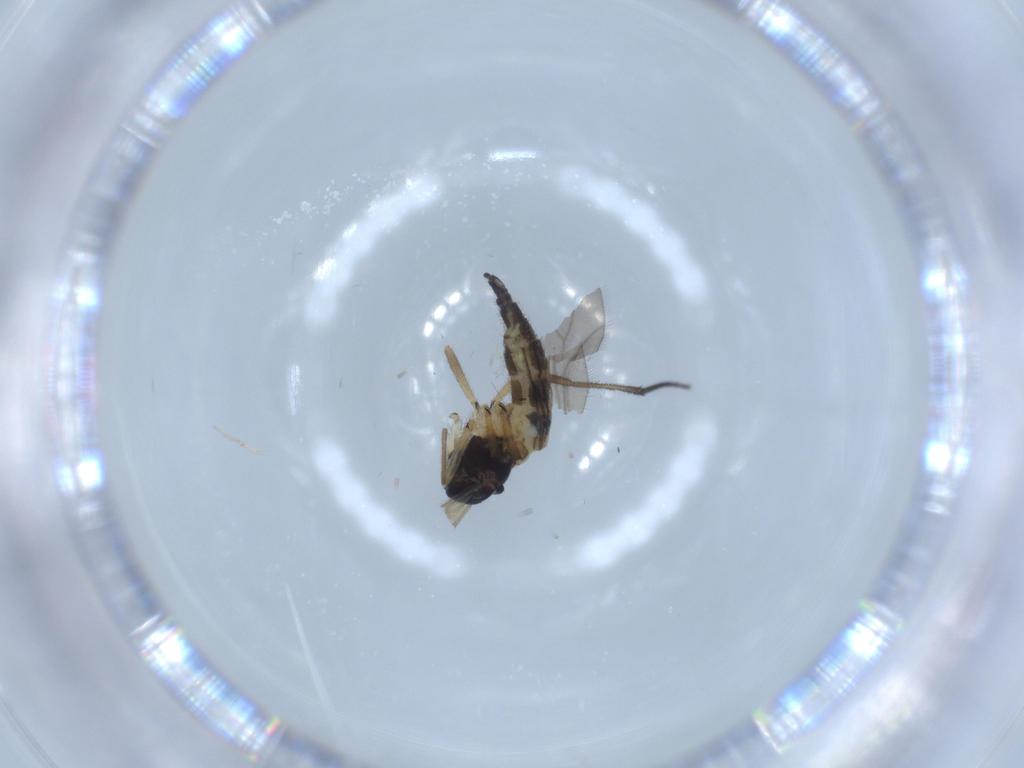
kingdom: Animalia
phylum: Arthropoda
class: Insecta
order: Diptera
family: Sciaridae
